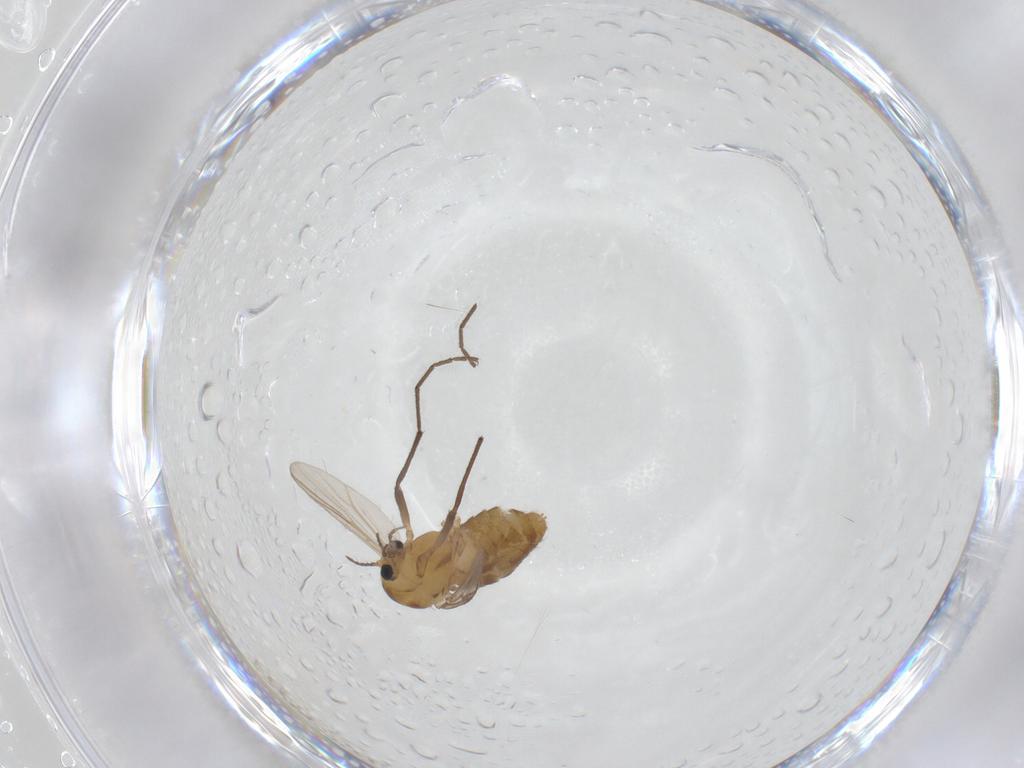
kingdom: Animalia
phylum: Arthropoda
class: Insecta
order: Diptera
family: Chironomidae
